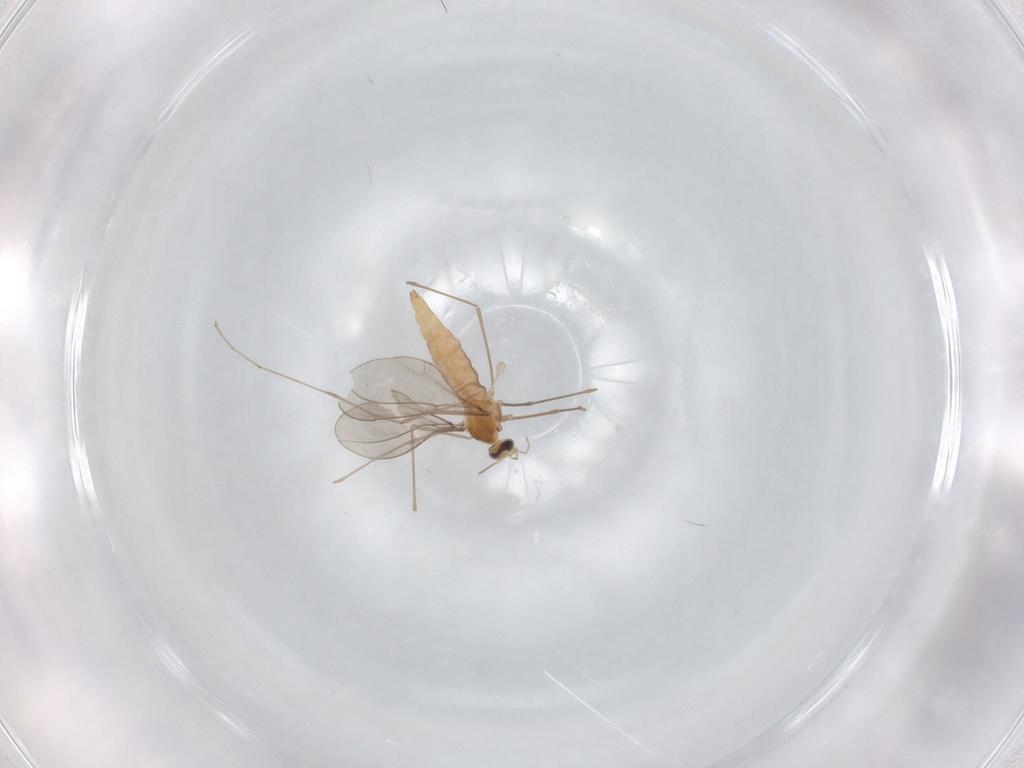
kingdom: Animalia
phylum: Arthropoda
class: Insecta
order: Diptera
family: Cecidomyiidae
